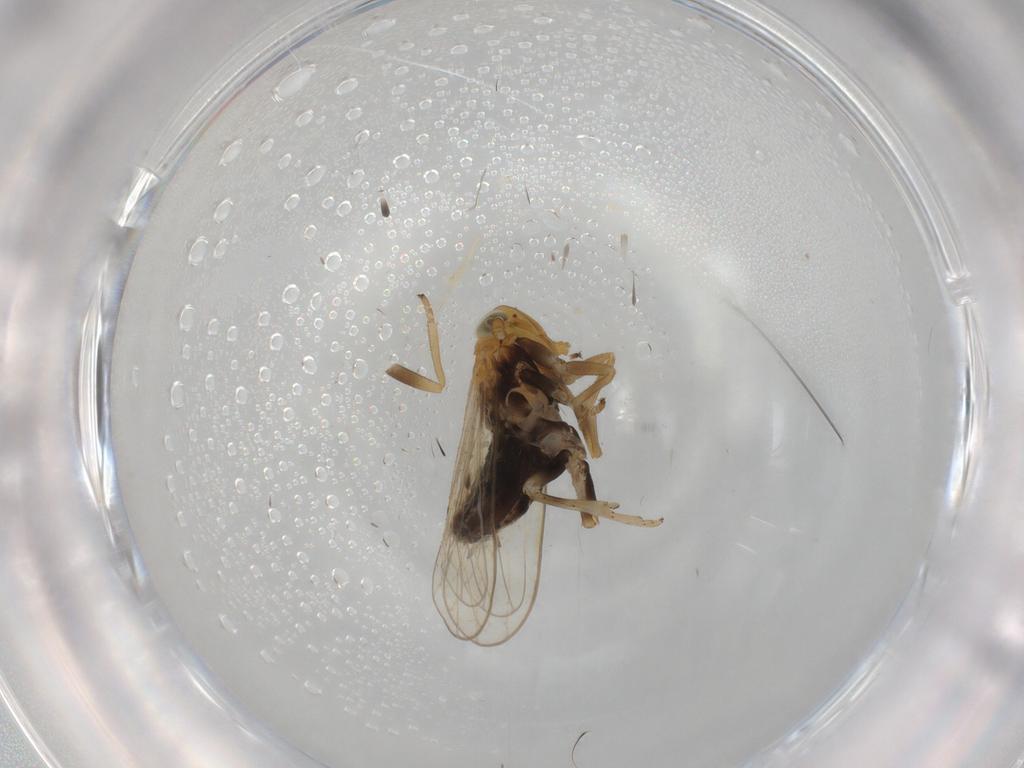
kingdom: Animalia
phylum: Arthropoda
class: Insecta
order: Hemiptera
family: Delphacidae
